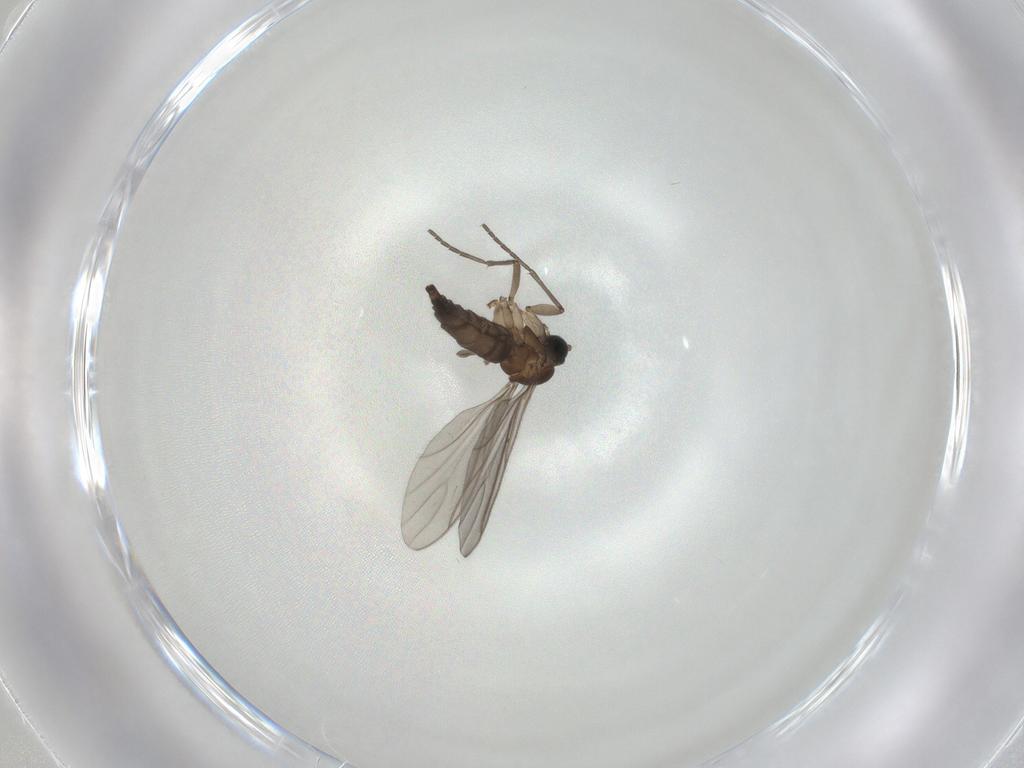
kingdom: Animalia
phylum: Arthropoda
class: Insecta
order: Diptera
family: Sciaridae
